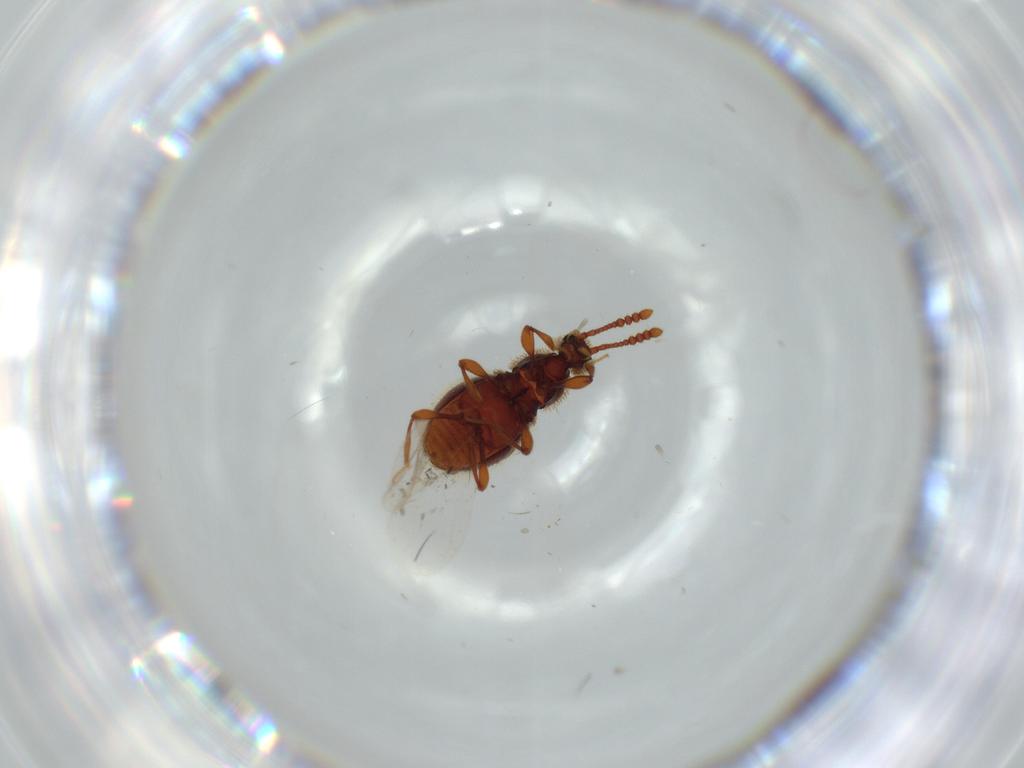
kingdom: Animalia
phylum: Arthropoda
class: Insecta
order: Coleoptera
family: Staphylinidae
